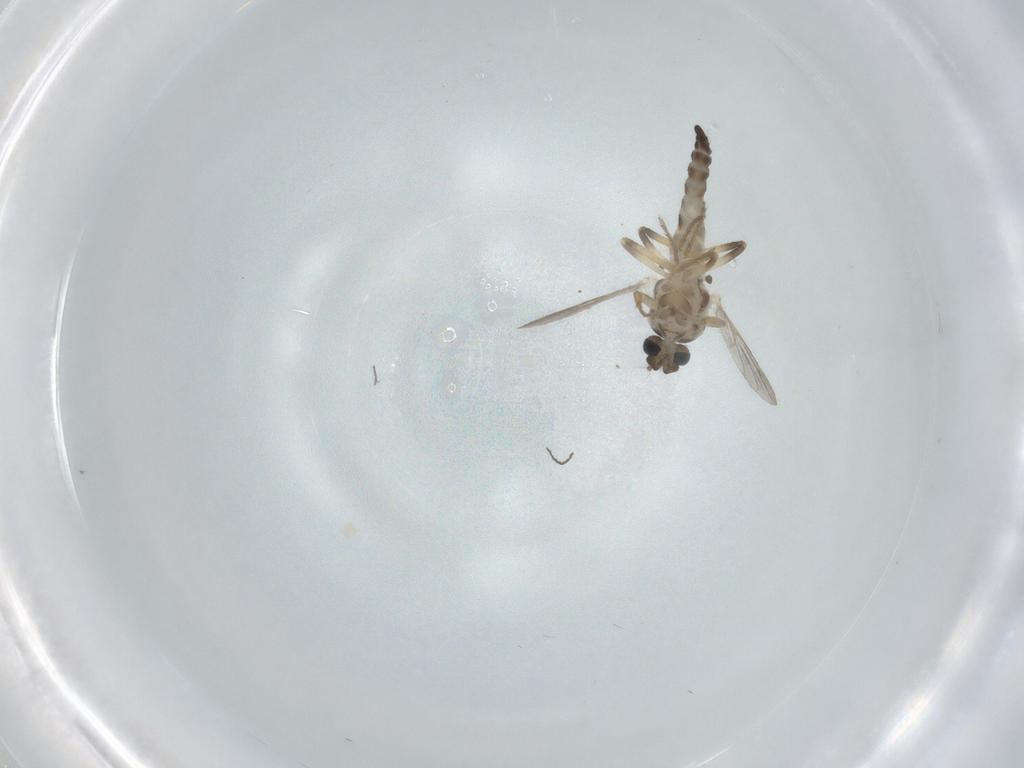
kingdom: Animalia
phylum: Arthropoda
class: Insecta
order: Diptera
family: Ceratopogonidae
